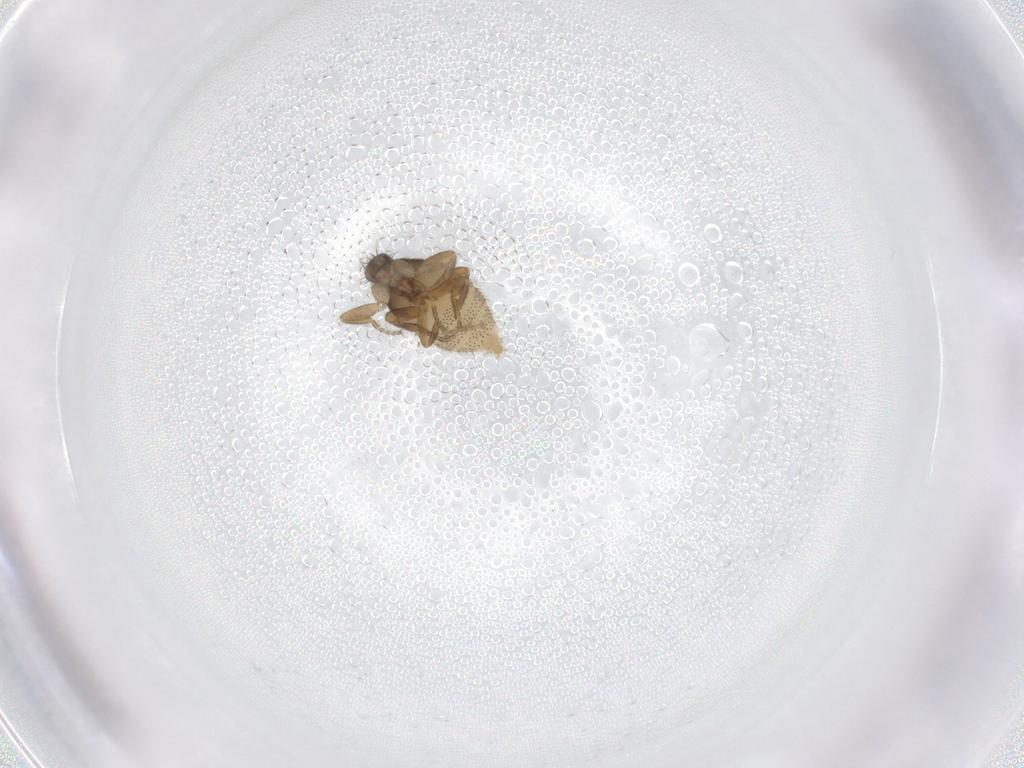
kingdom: Animalia
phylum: Arthropoda
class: Insecta
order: Diptera
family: Phoridae
